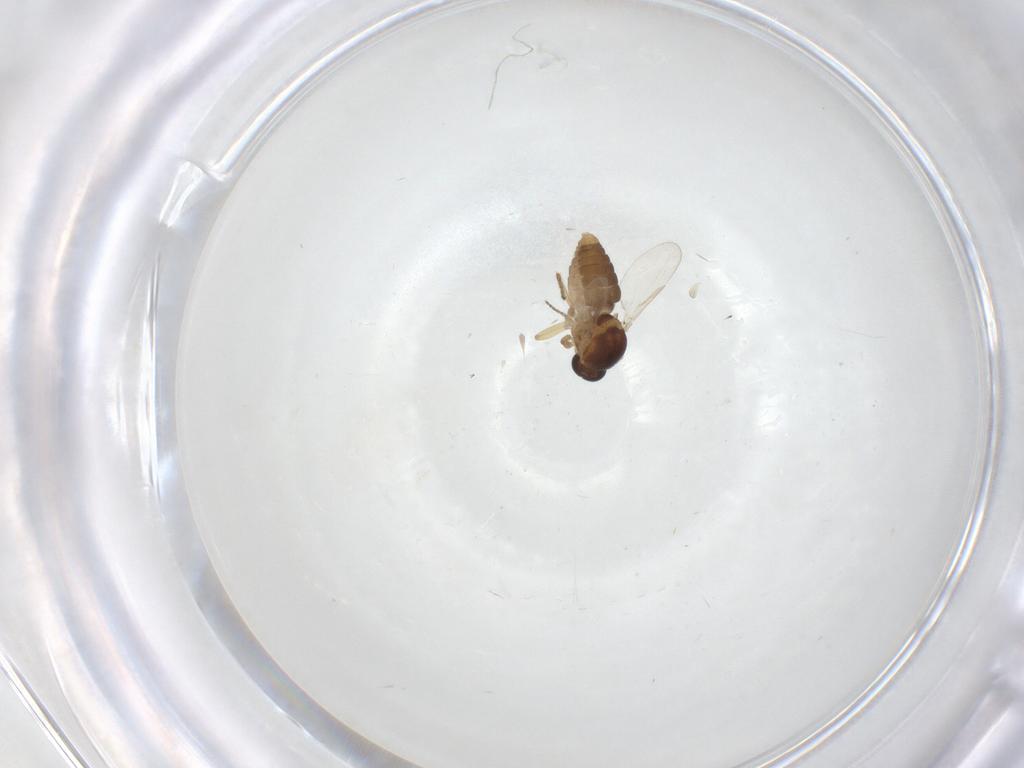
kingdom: Animalia
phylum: Arthropoda
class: Insecta
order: Diptera
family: Ceratopogonidae
